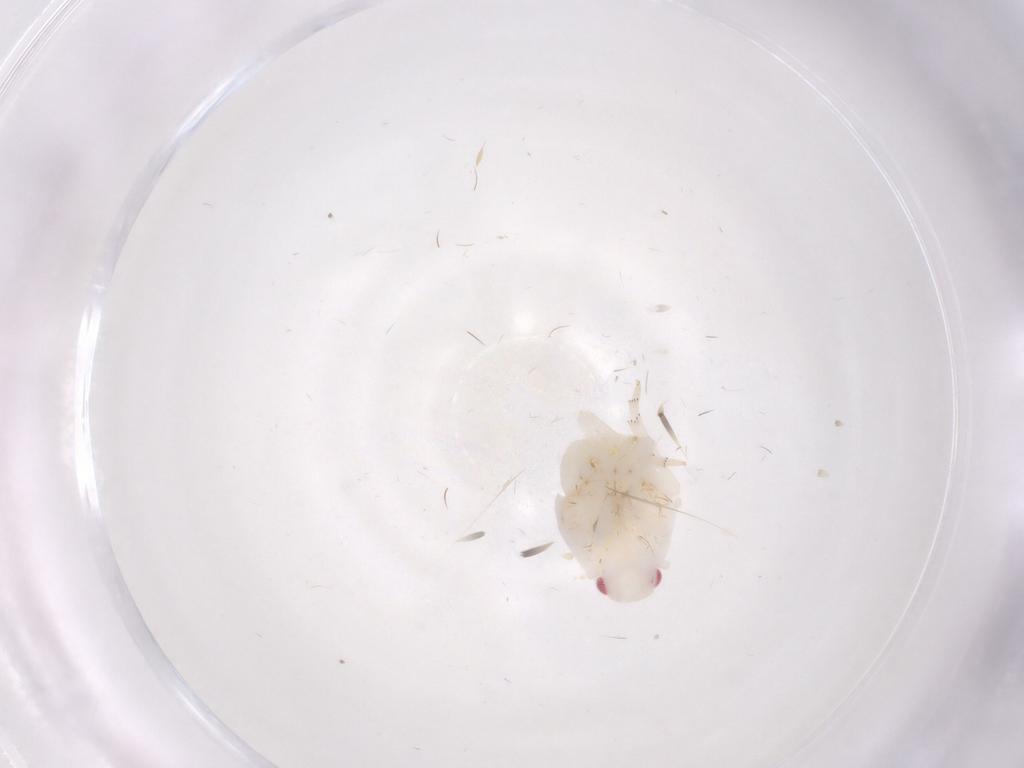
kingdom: Animalia
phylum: Arthropoda
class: Insecta
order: Hemiptera
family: Flatidae
